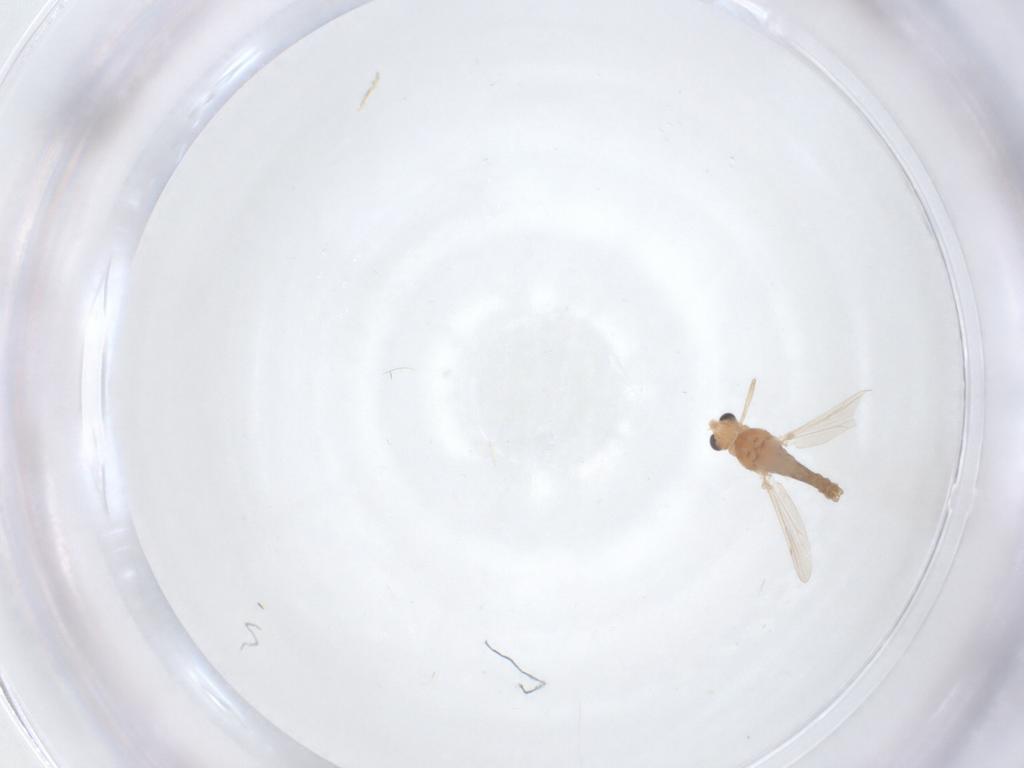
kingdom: Animalia
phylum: Arthropoda
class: Insecta
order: Diptera
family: Chironomidae
